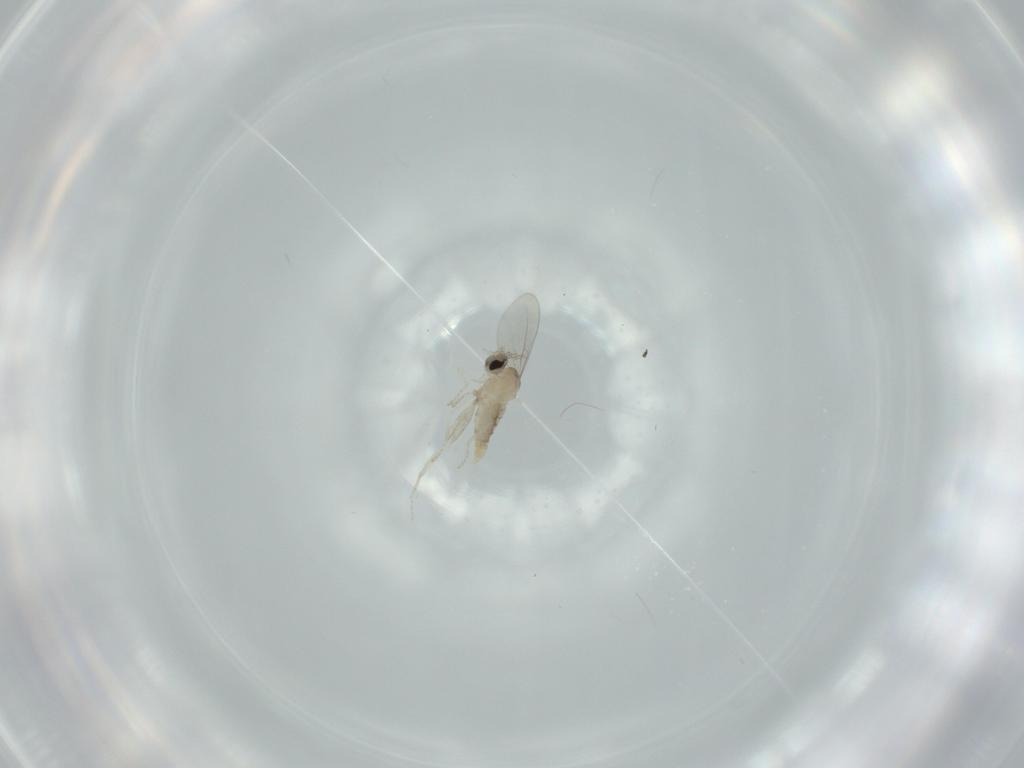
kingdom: Animalia
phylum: Arthropoda
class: Insecta
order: Diptera
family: Cecidomyiidae
